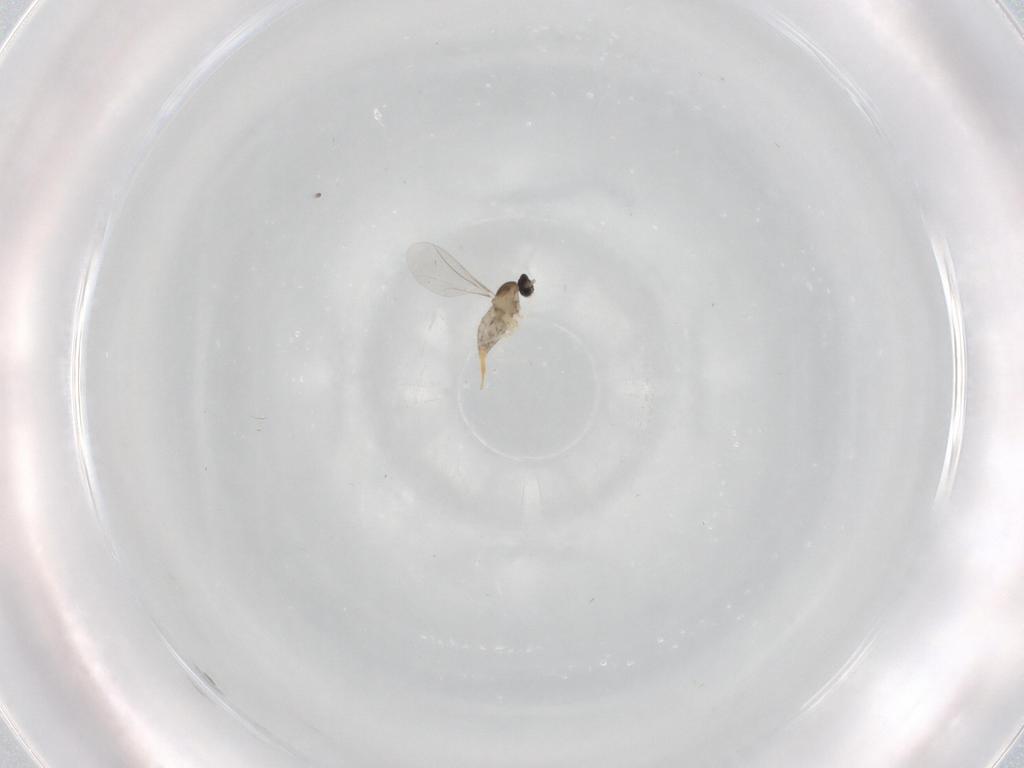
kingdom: Animalia
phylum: Arthropoda
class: Insecta
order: Diptera
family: Cecidomyiidae
